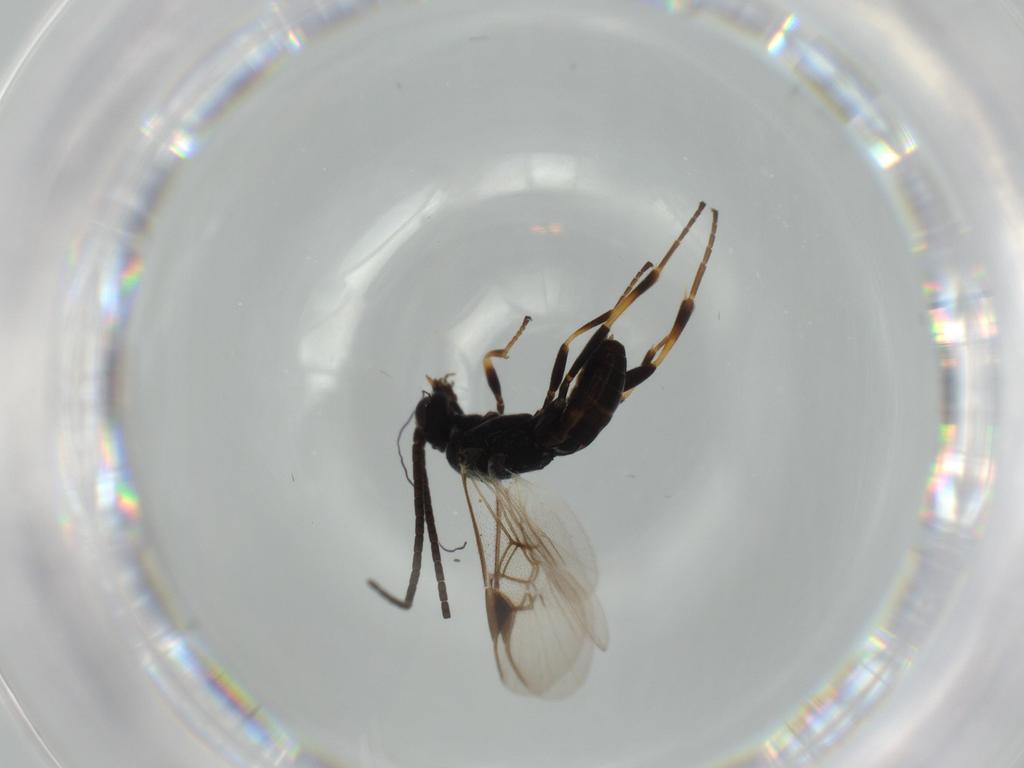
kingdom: Animalia
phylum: Arthropoda
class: Insecta
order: Hymenoptera
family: Braconidae
